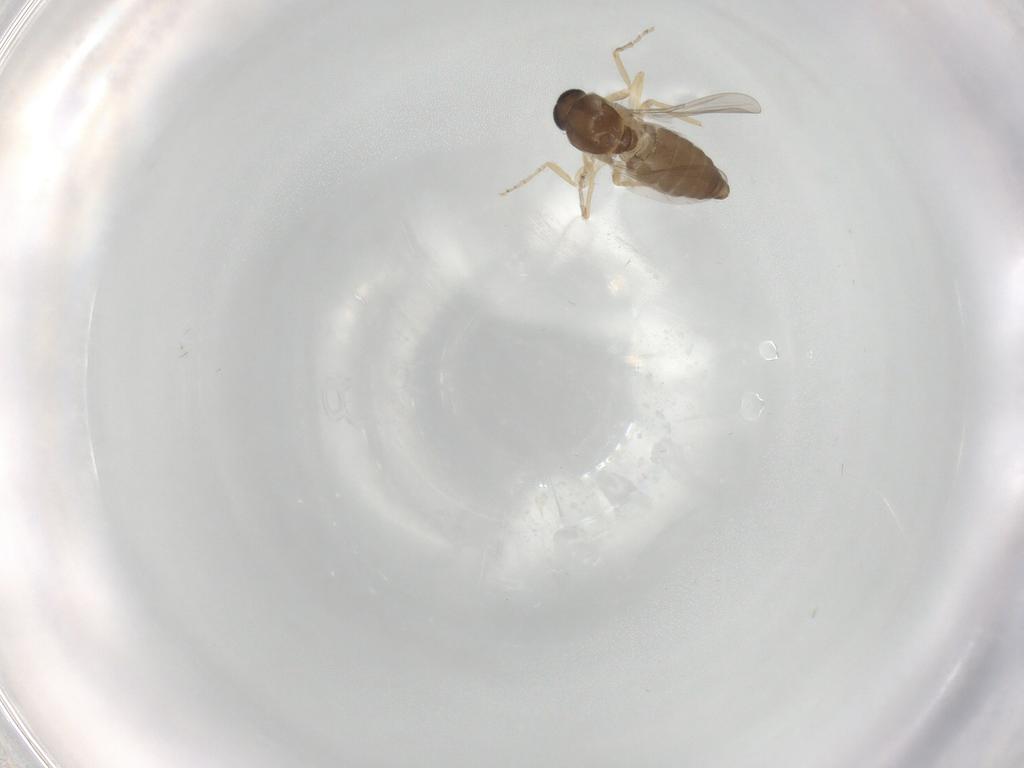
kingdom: Animalia
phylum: Arthropoda
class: Insecta
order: Diptera
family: Ceratopogonidae
